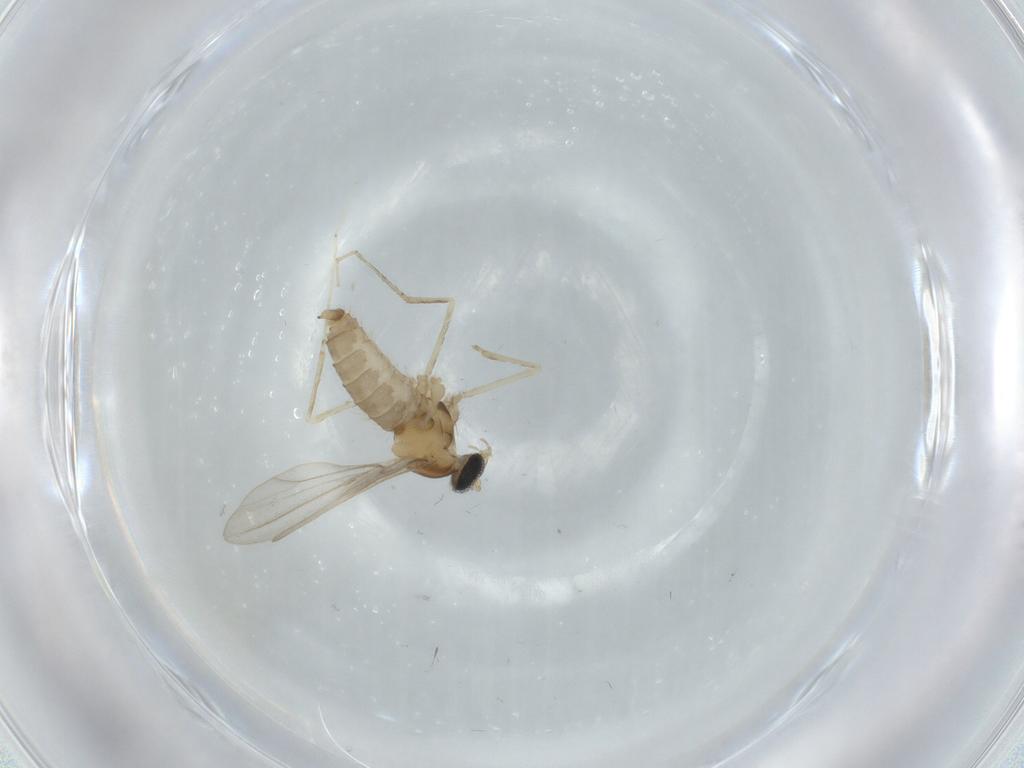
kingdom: Animalia
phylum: Arthropoda
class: Insecta
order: Diptera
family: Cecidomyiidae
